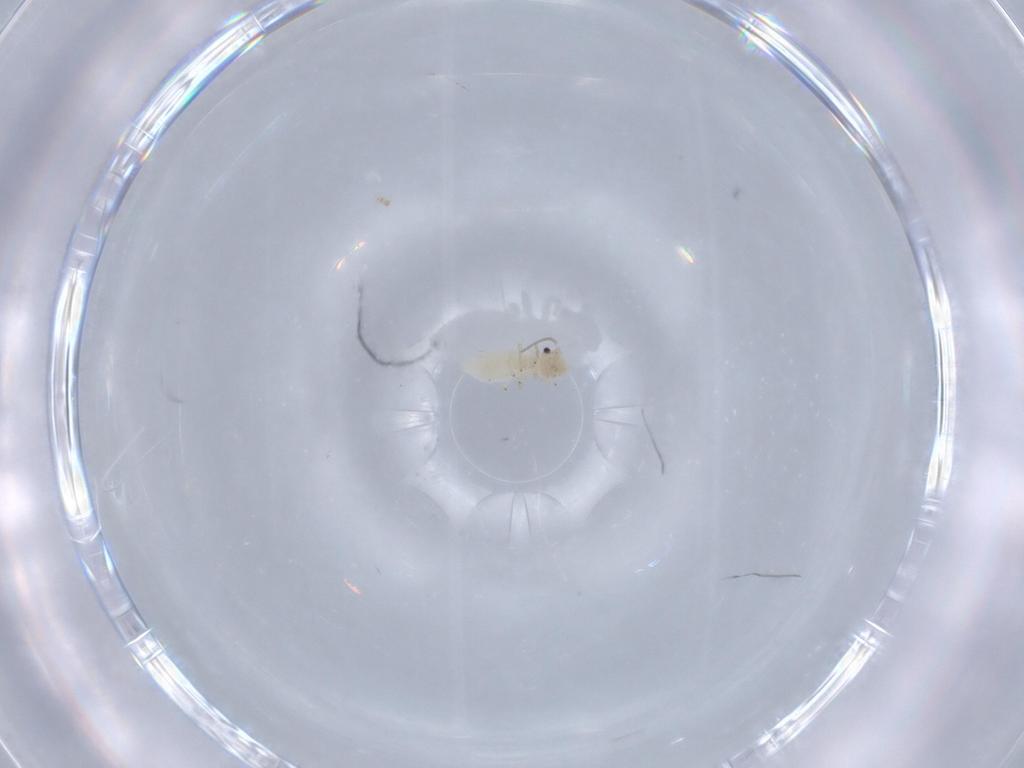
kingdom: Animalia
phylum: Arthropoda
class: Insecta
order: Psocodea
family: Caeciliusidae
